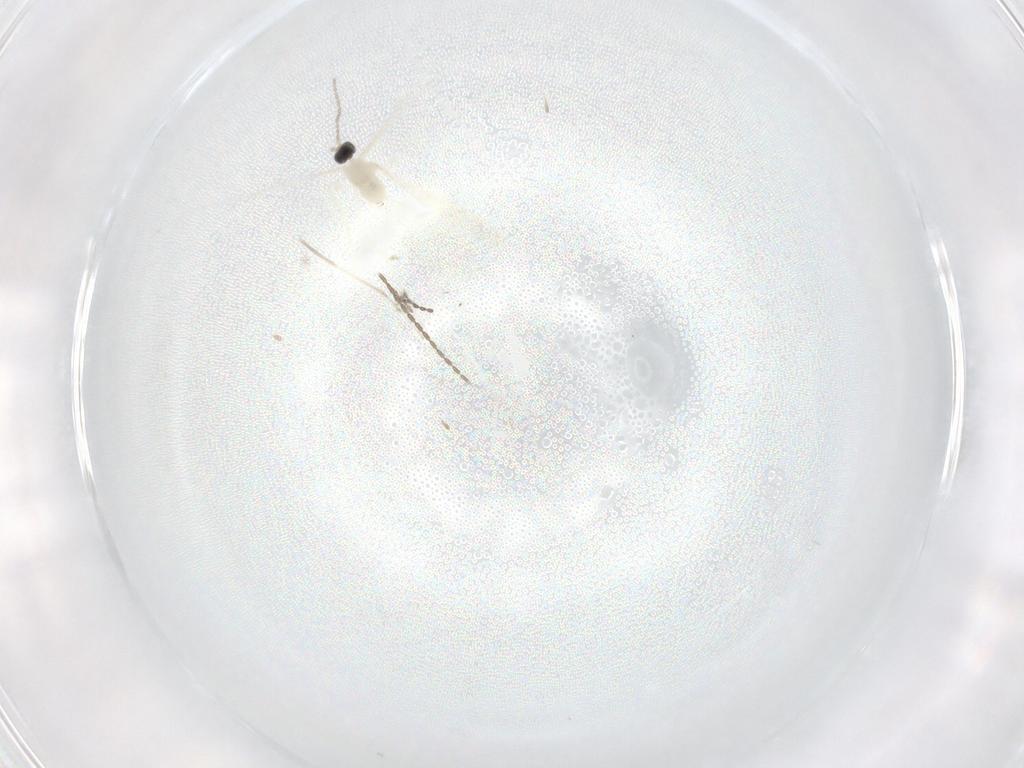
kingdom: Animalia
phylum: Arthropoda
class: Insecta
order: Diptera
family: Cecidomyiidae
